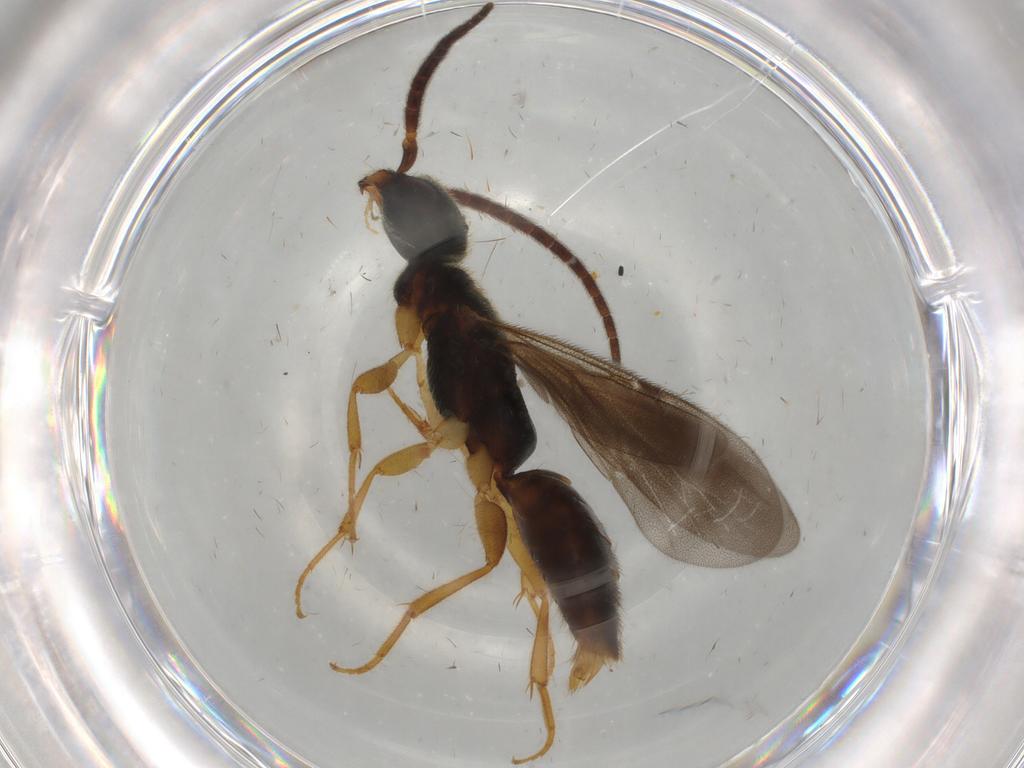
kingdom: Animalia
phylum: Arthropoda
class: Insecta
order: Hymenoptera
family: Bethylidae
